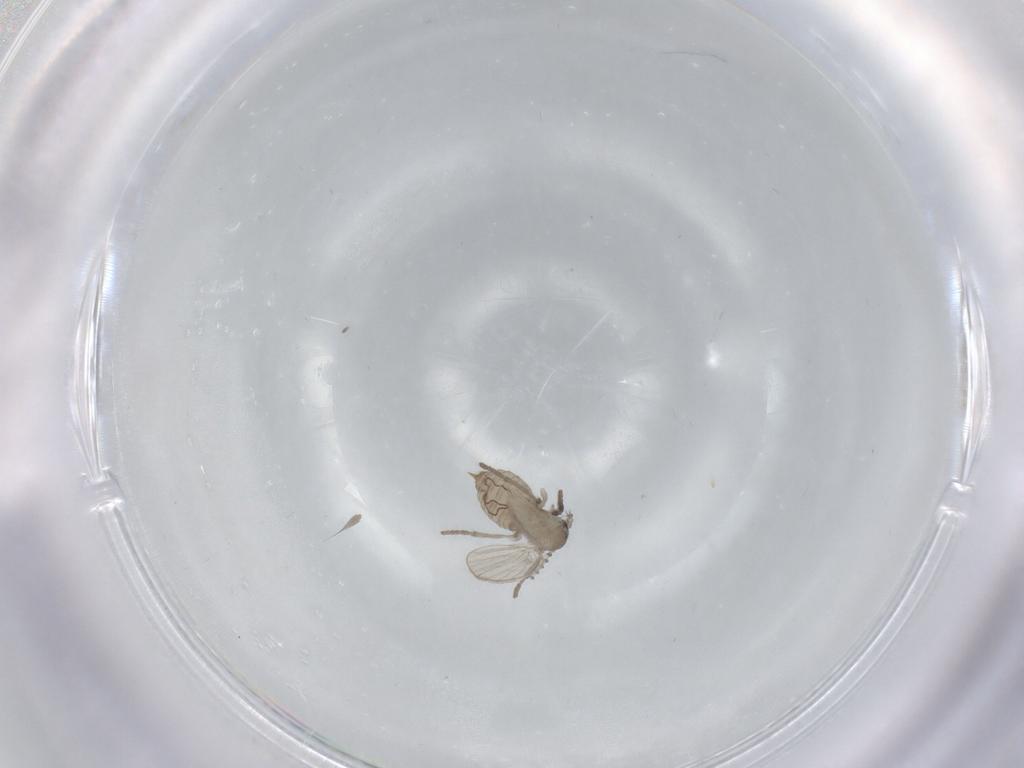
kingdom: Animalia
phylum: Arthropoda
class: Insecta
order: Diptera
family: Psychodidae
